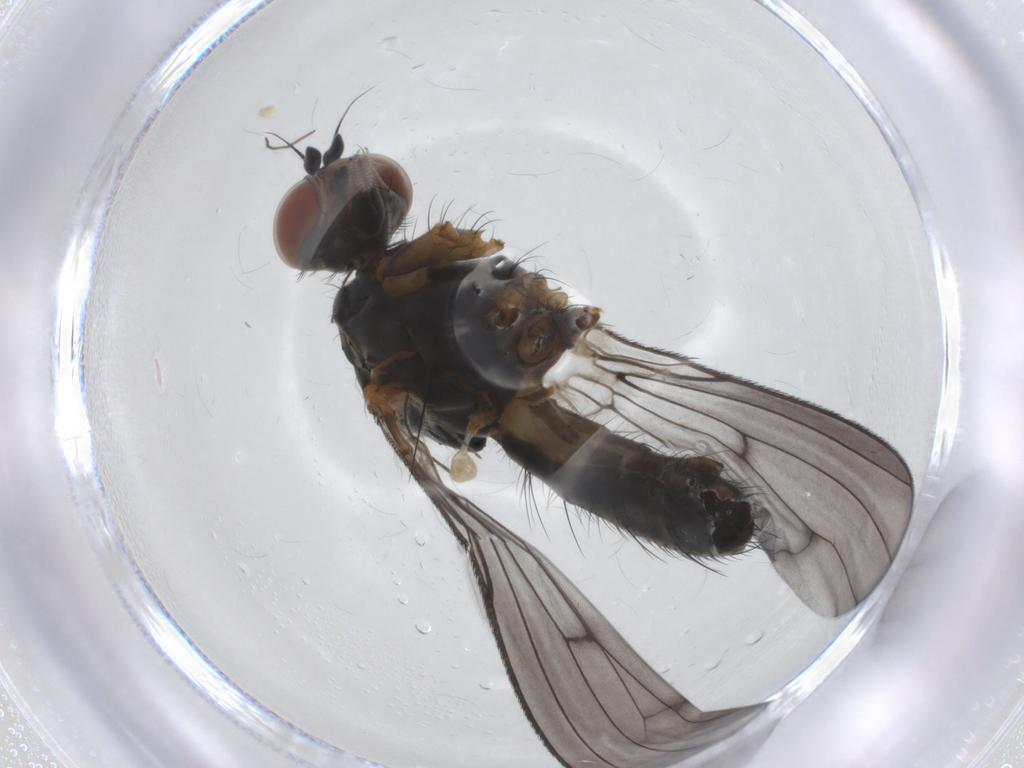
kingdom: Animalia
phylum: Arthropoda
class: Insecta
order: Diptera
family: Anthomyiidae
